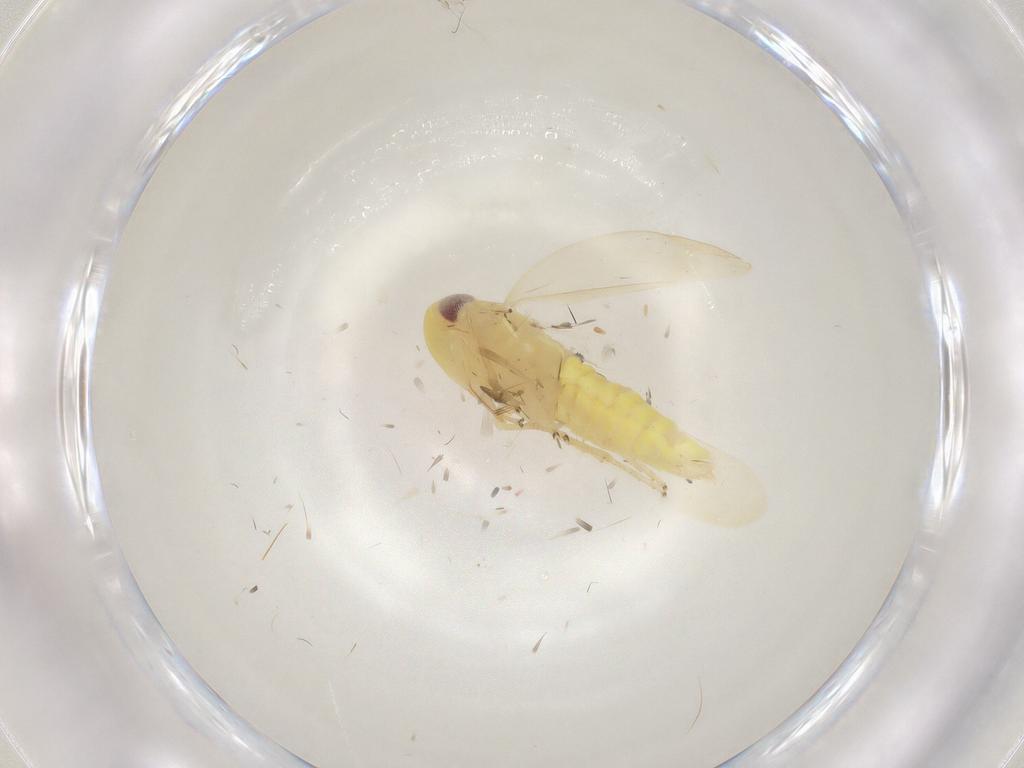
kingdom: Animalia
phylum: Arthropoda
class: Insecta
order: Hemiptera
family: Cicadellidae
